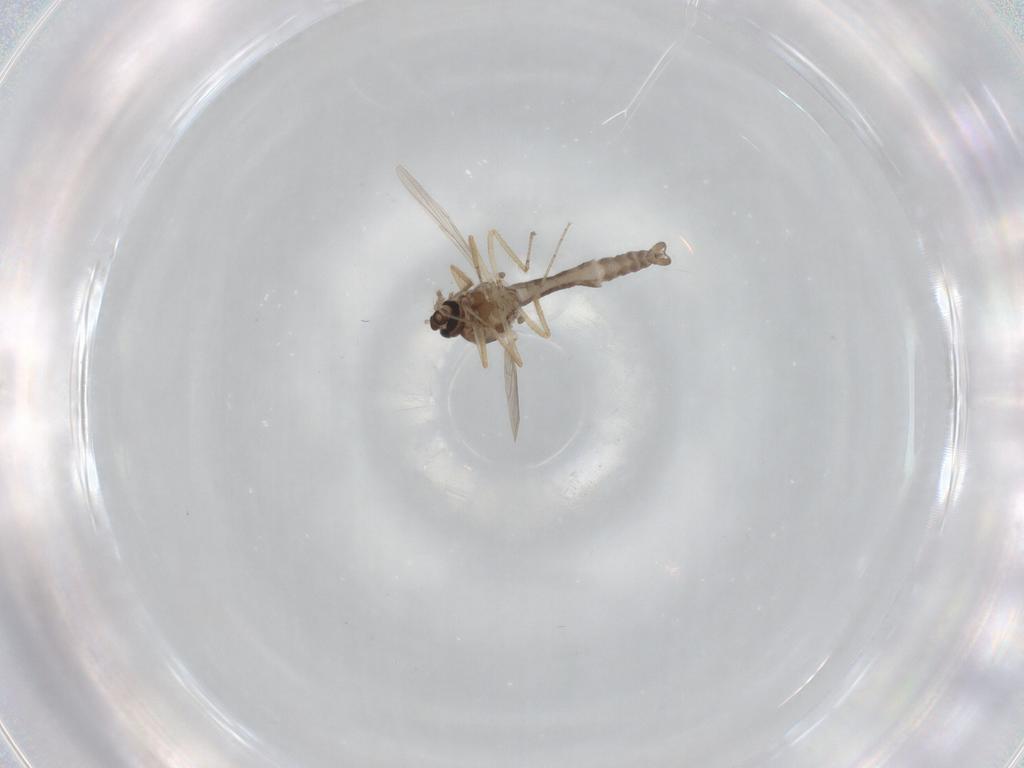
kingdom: Animalia
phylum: Arthropoda
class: Insecta
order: Diptera
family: Ceratopogonidae
